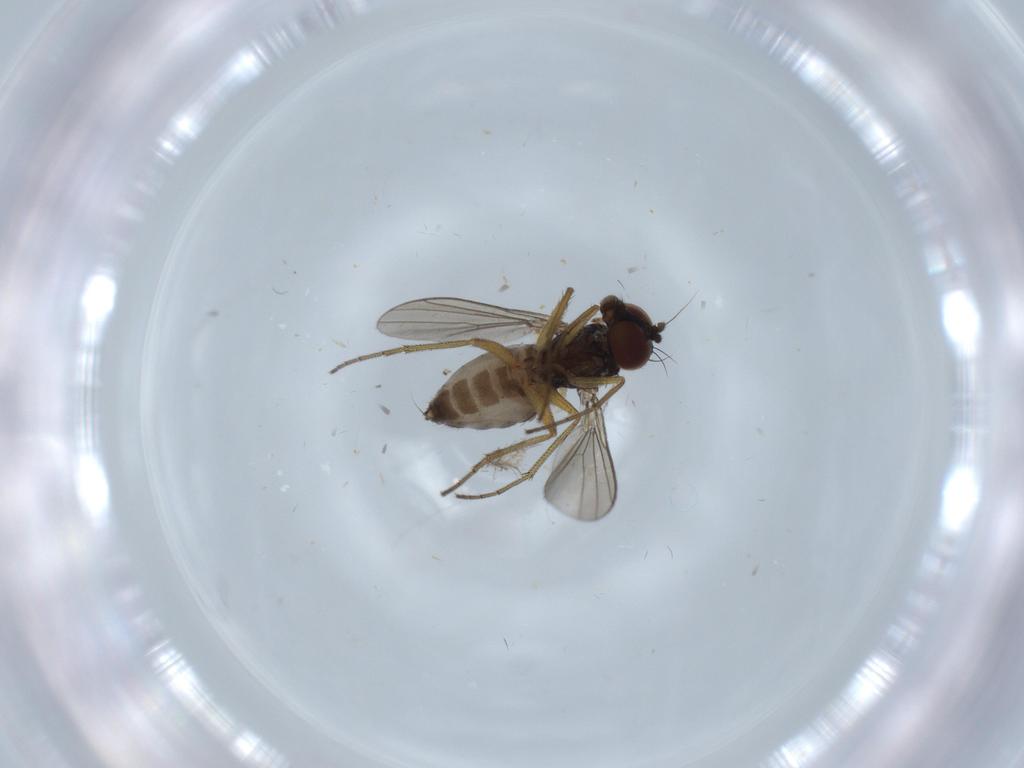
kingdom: Animalia
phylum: Arthropoda
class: Insecta
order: Diptera
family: Dolichopodidae
